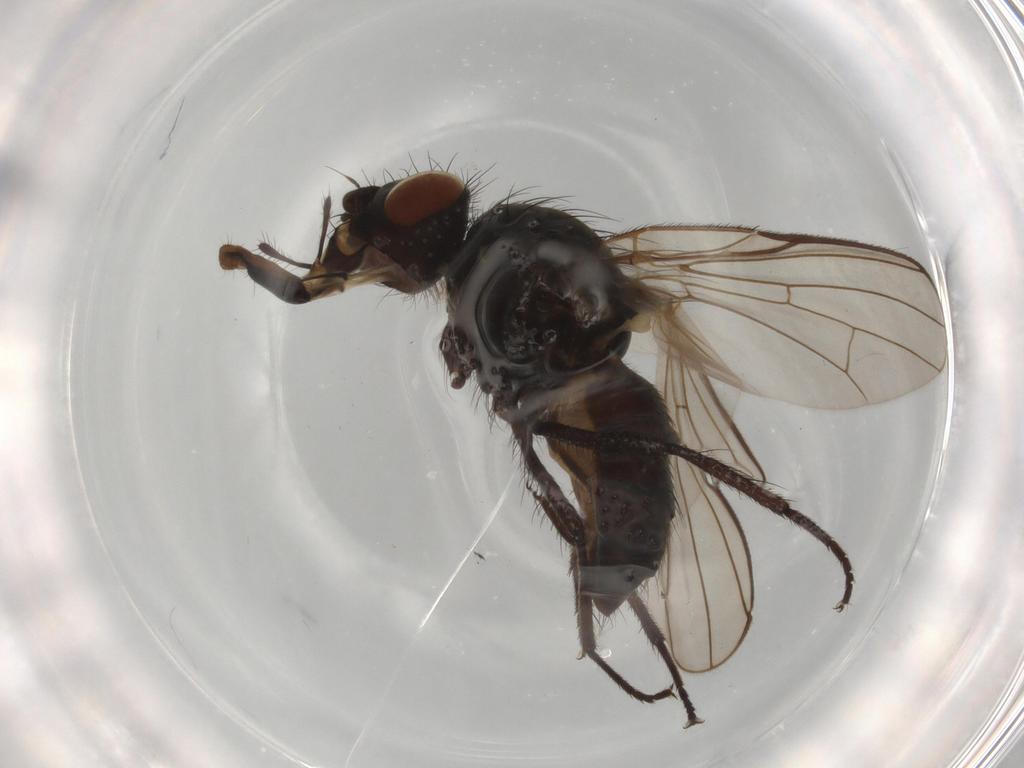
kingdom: Animalia
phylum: Arthropoda
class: Insecta
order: Diptera
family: Anthomyiidae
